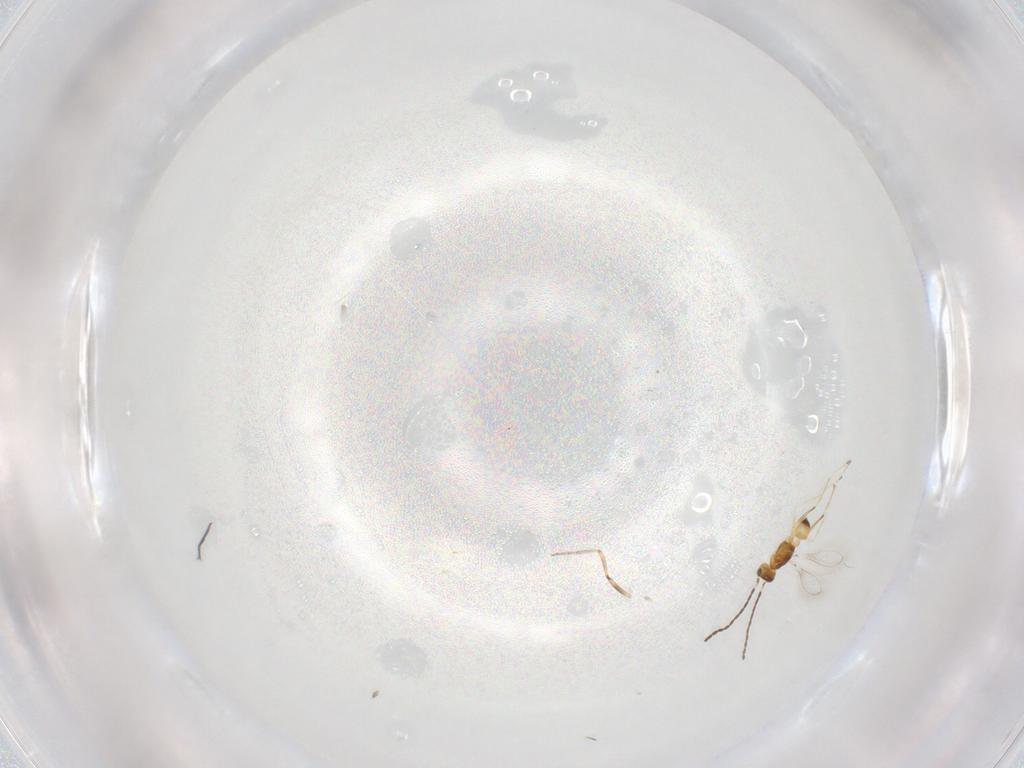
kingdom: Animalia
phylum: Arthropoda
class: Insecta
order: Hymenoptera
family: Mymaridae
